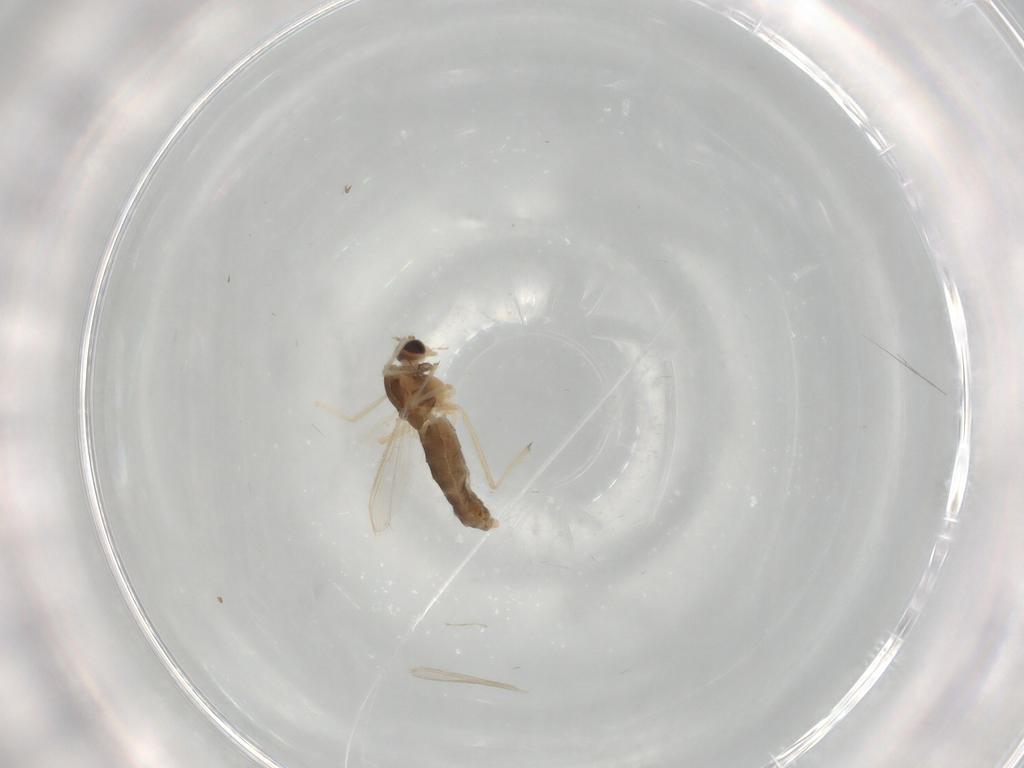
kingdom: Animalia
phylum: Arthropoda
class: Insecta
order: Diptera
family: Chironomidae
